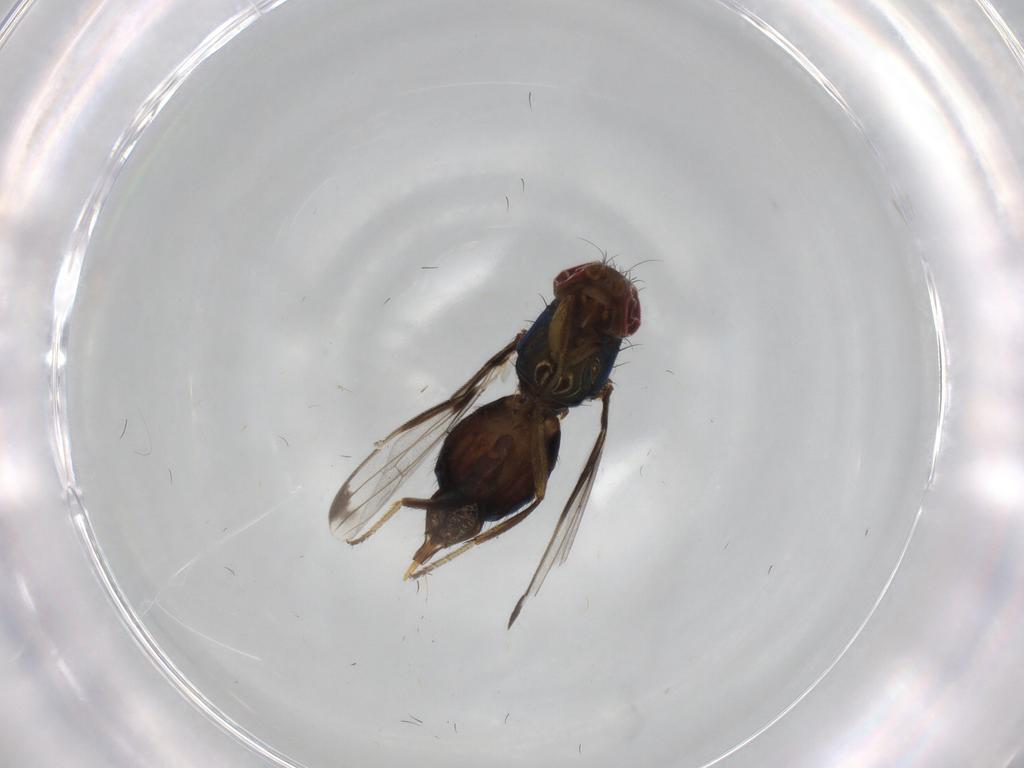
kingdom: Animalia
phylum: Arthropoda
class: Insecta
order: Diptera
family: Ulidiidae
